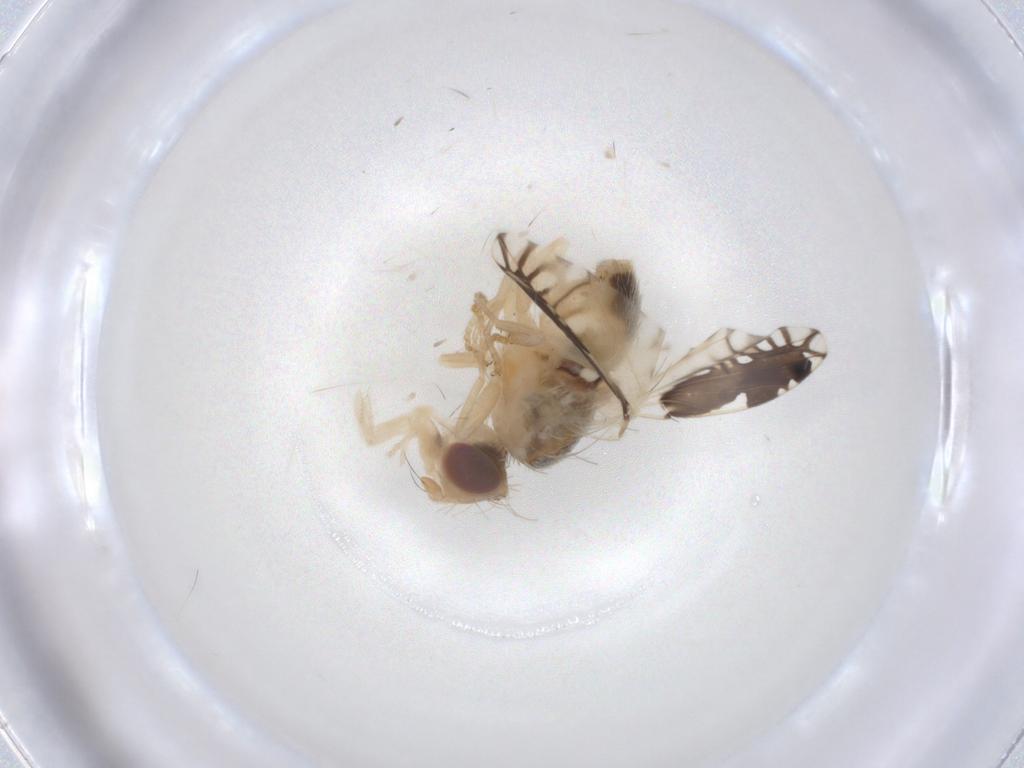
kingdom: Animalia
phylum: Arthropoda
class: Insecta
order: Diptera
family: Tephritidae
